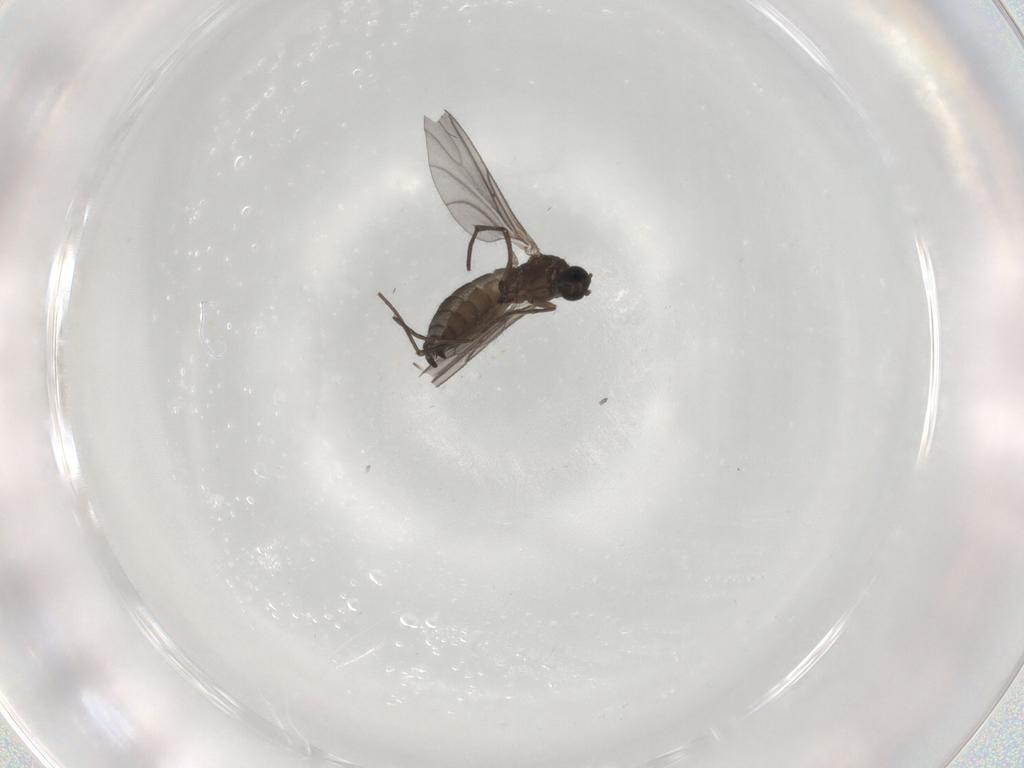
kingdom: Animalia
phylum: Arthropoda
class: Insecta
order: Diptera
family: Sciaridae
